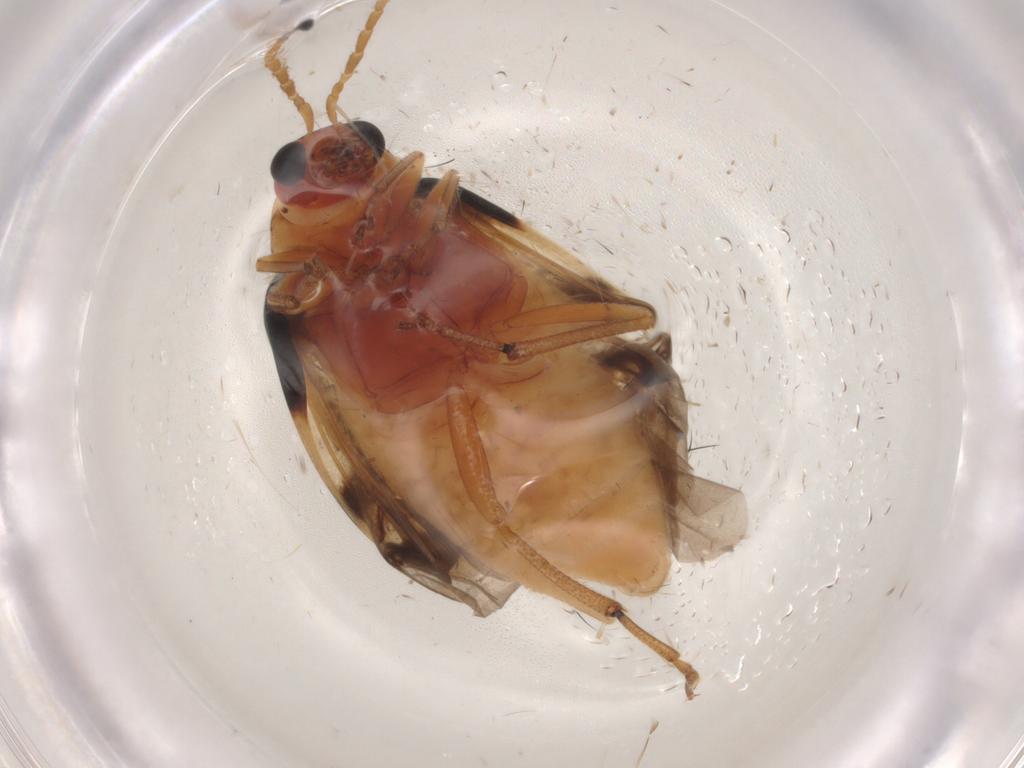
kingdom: Animalia
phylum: Arthropoda
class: Insecta
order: Coleoptera
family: Chrysomelidae
